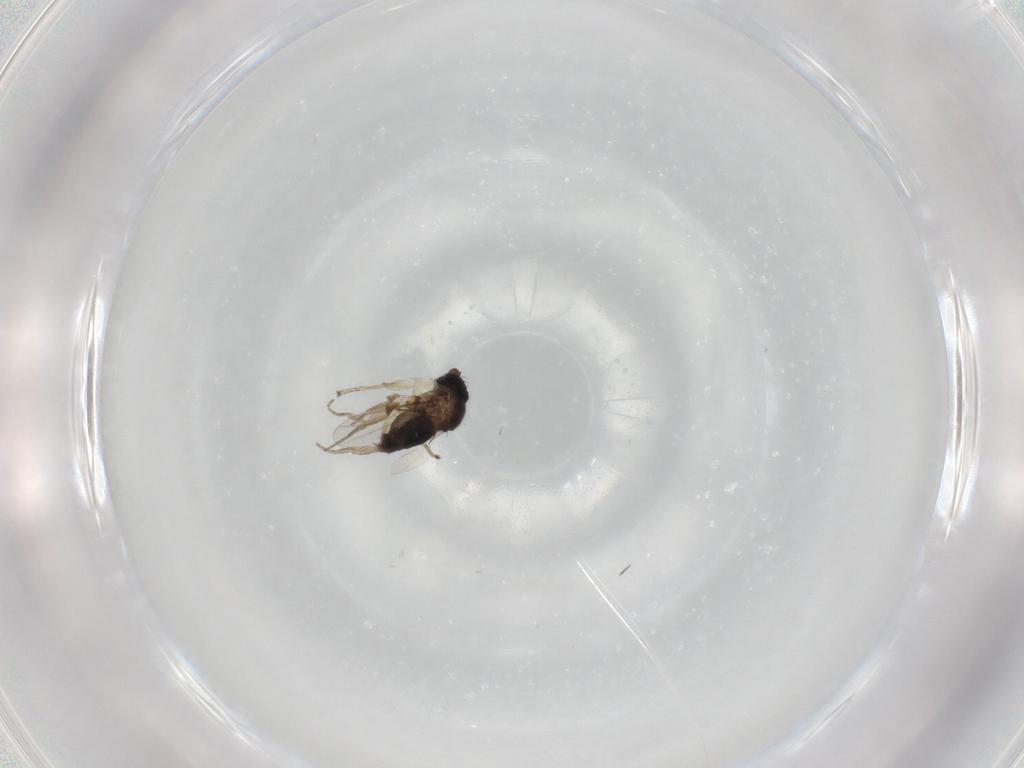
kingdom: Animalia
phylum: Arthropoda
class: Insecta
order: Diptera
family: Phoridae
